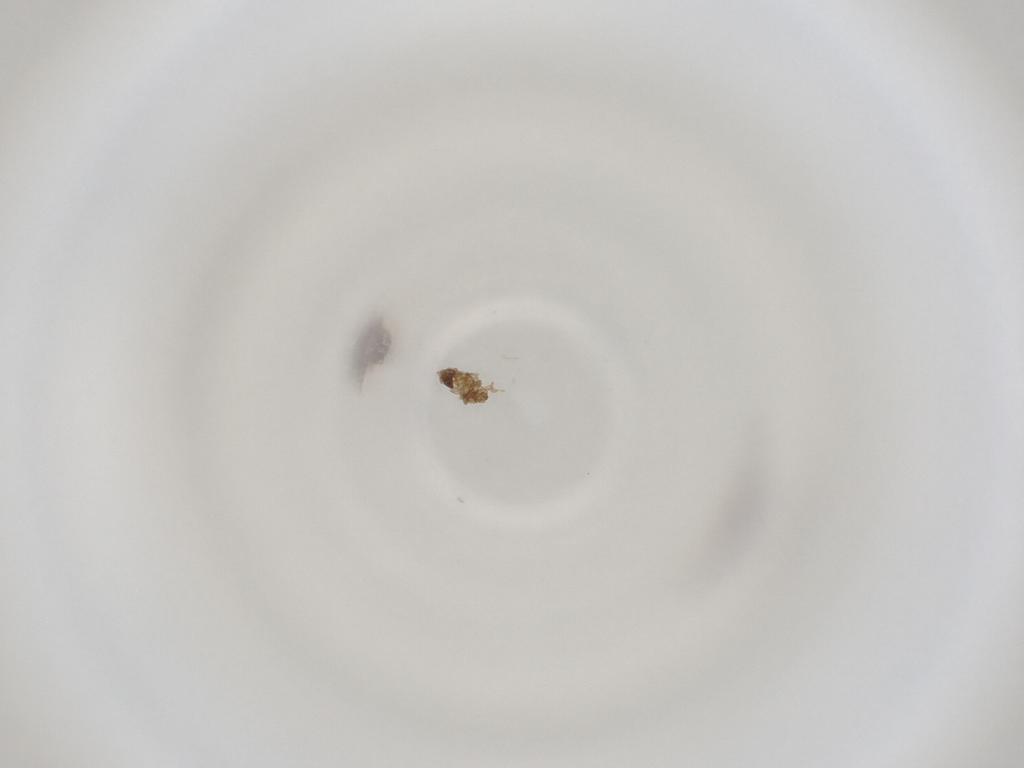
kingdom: Animalia
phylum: Arthropoda
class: Insecta
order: Diptera
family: Cecidomyiidae
